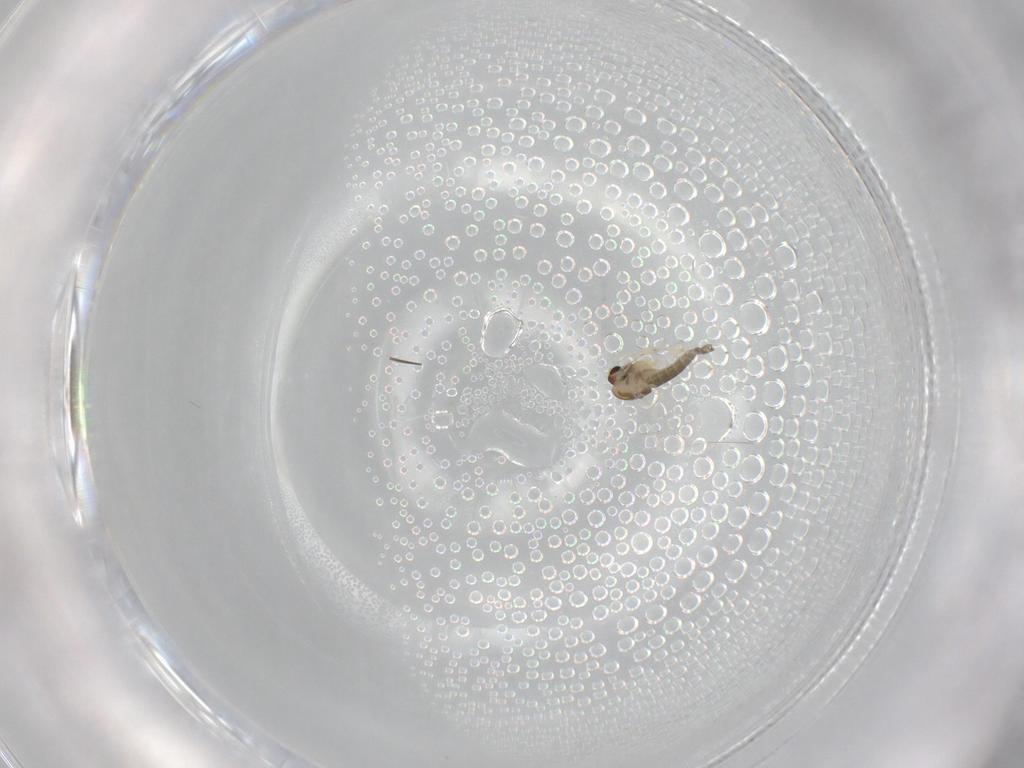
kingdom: Animalia
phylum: Arthropoda
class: Insecta
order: Diptera
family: Chironomidae
